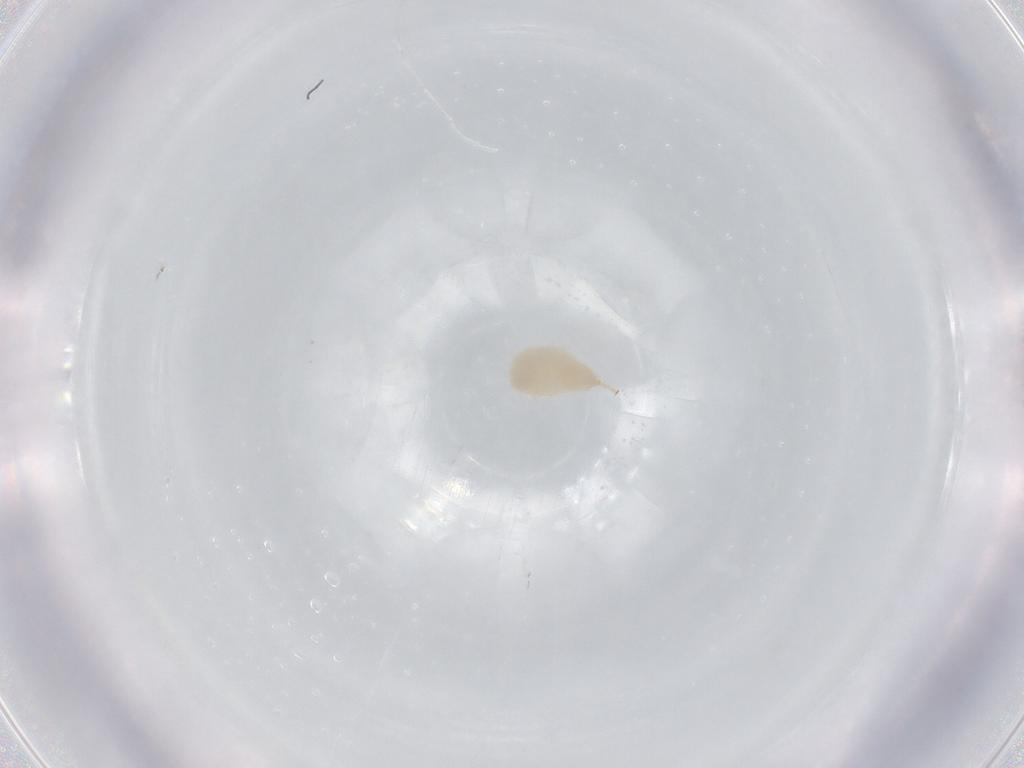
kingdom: Animalia
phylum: Arthropoda
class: Insecta
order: Hemiptera
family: Aphididae
